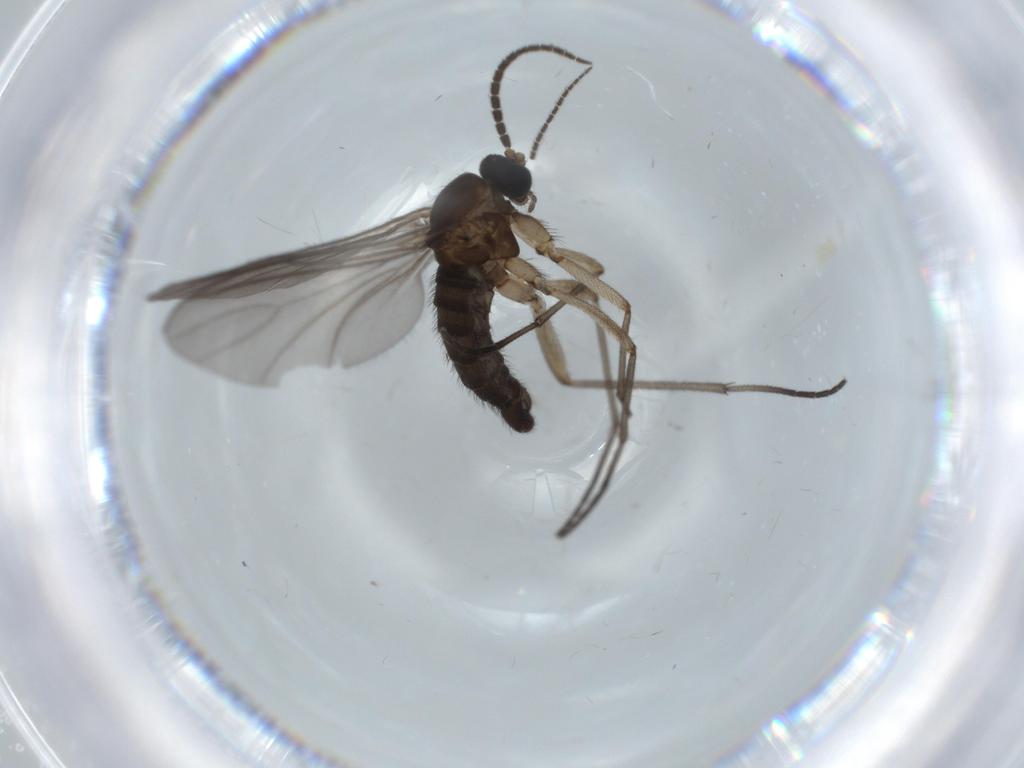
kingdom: Animalia
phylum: Arthropoda
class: Insecta
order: Diptera
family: Sciaridae
